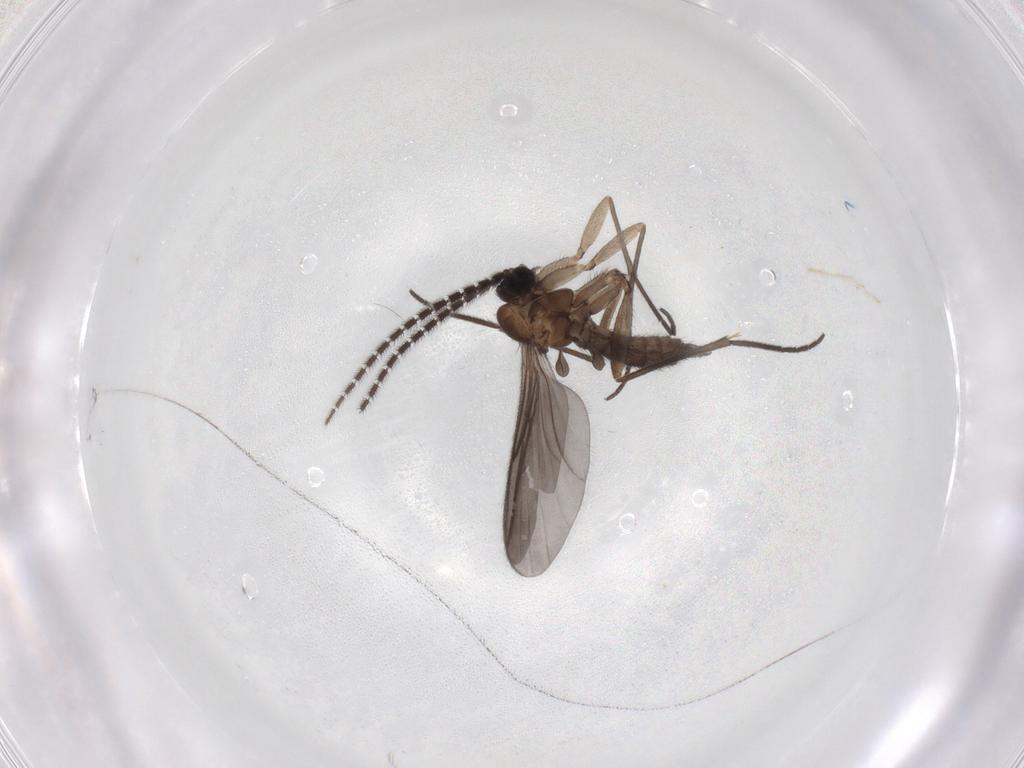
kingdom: Animalia
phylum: Arthropoda
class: Insecta
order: Diptera
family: Sciaridae
